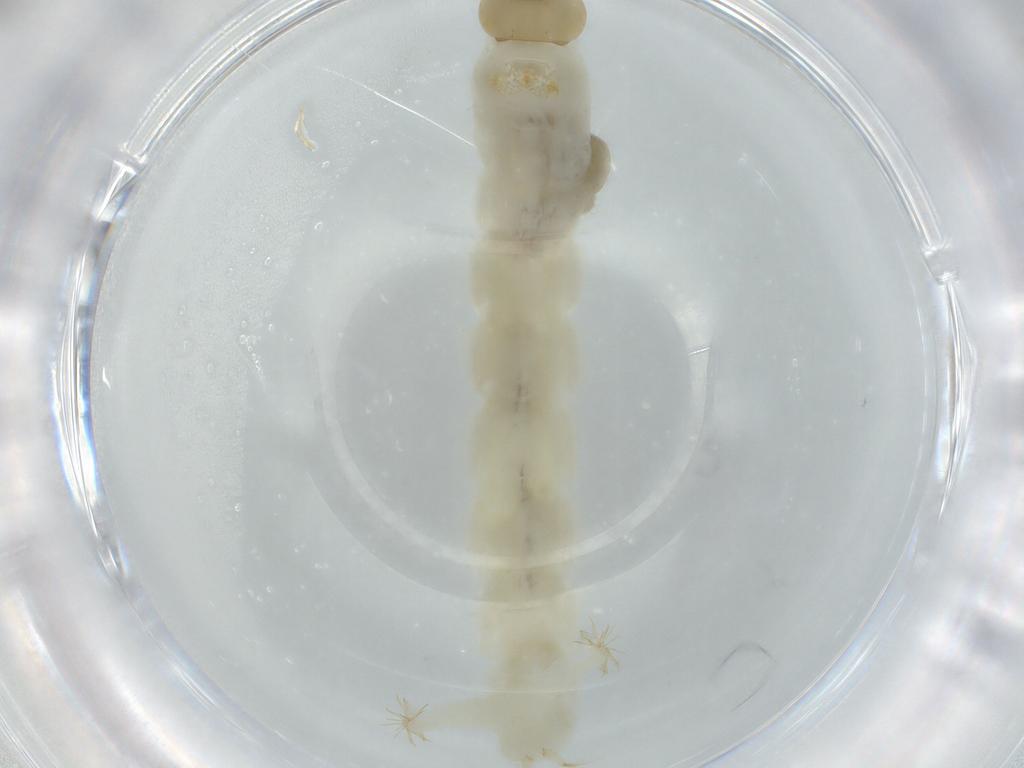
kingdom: Animalia
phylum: Arthropoda
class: Insecta
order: Diptera
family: Chironomidae
